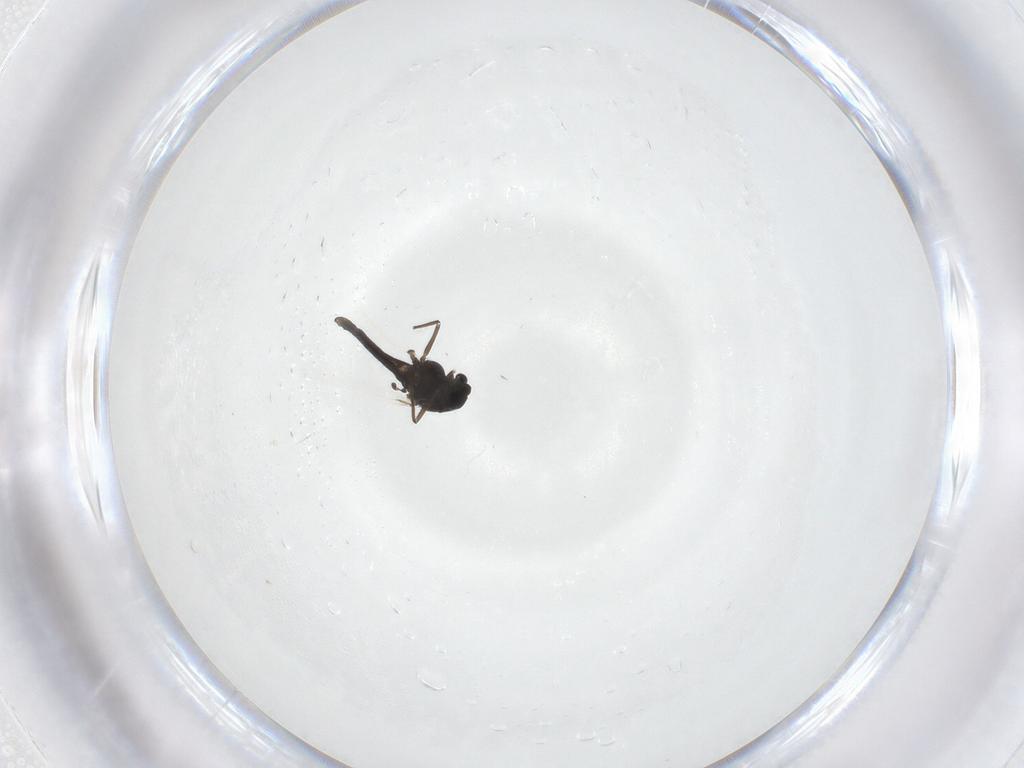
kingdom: Animalia
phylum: Arthropoda
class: Insecta
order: Diptera
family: Chironomidae
